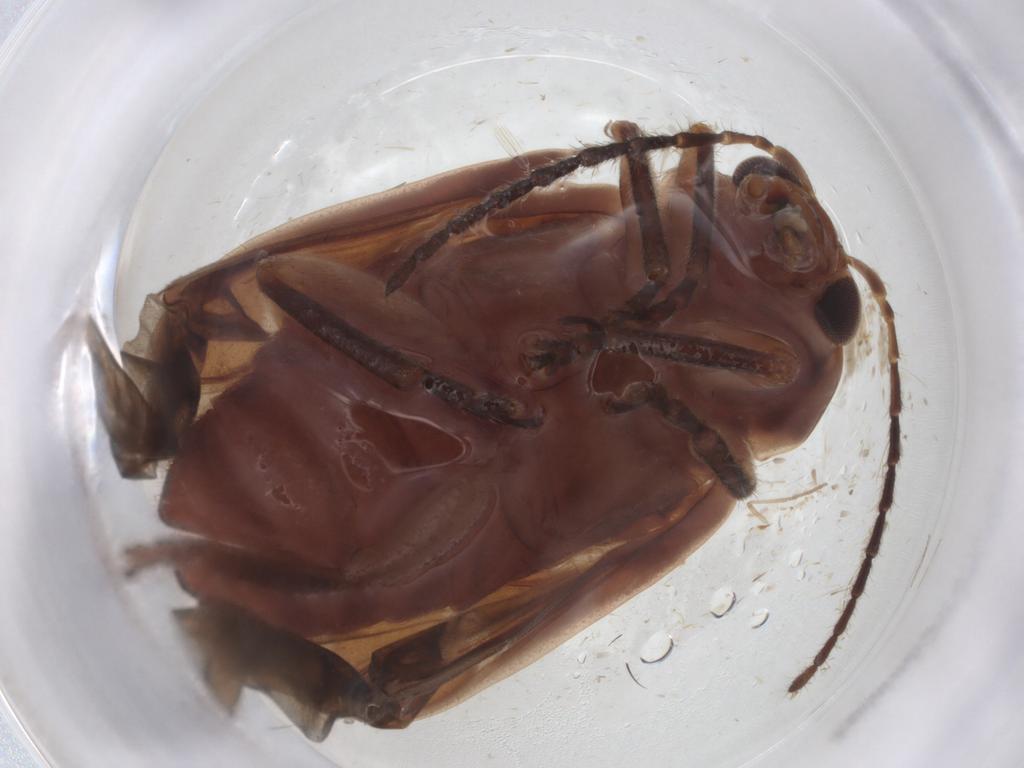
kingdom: Animalia
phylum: Arthropoda
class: Insecta
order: Coleoptera
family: Chrysomelidae
